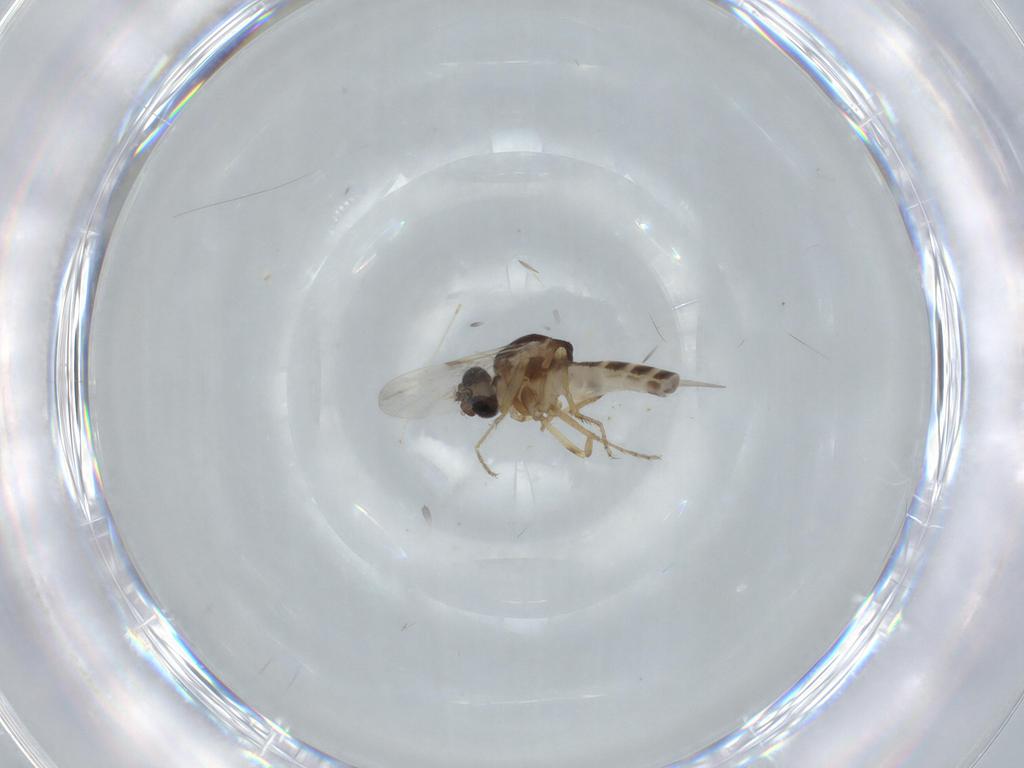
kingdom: Animalia
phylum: Arthropoda
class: Insecta
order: Diptera
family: Ceratopogonidae
